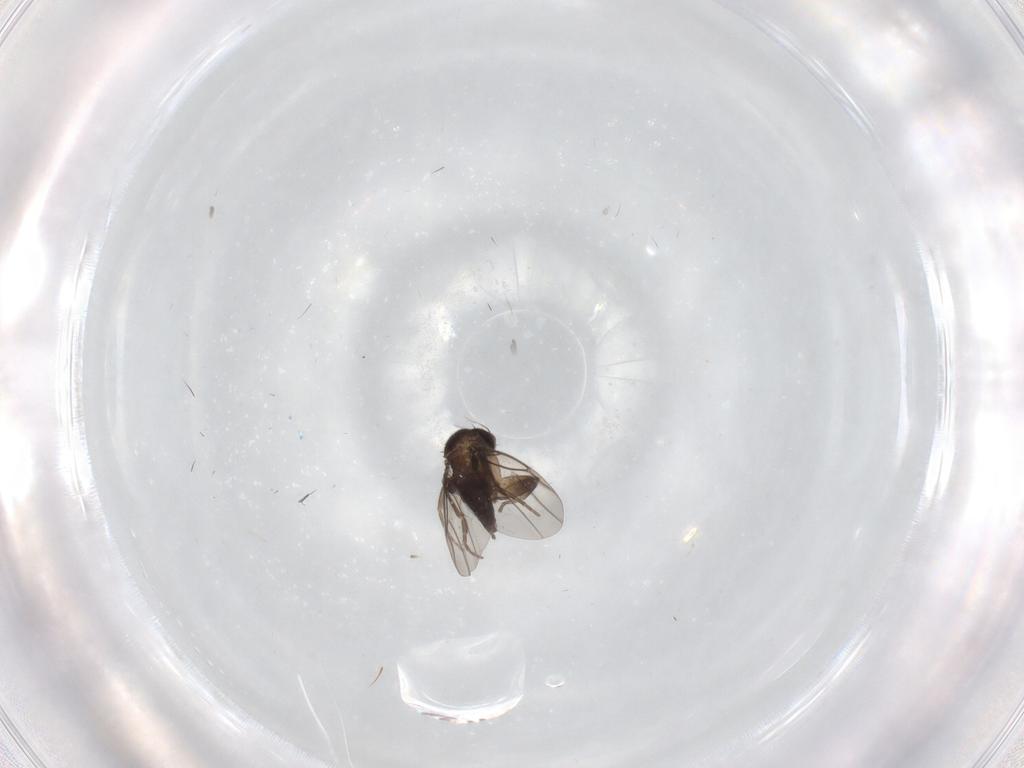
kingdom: Animalia
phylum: Arthropoda
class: Insecta
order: Diptera
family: Phoridae
